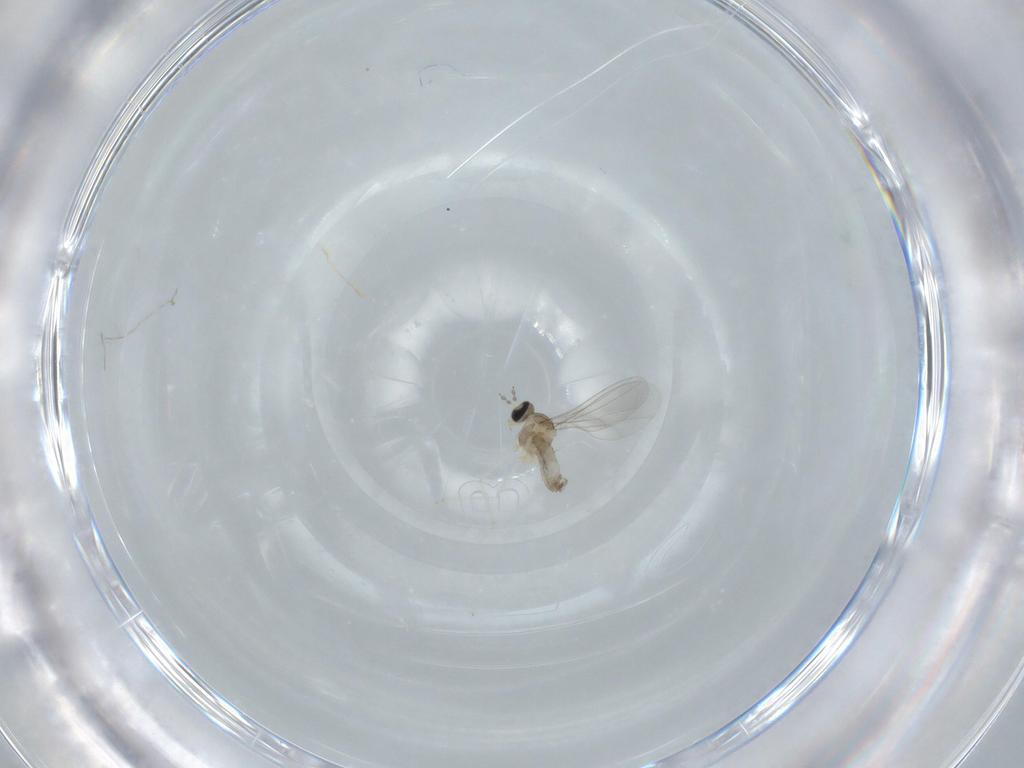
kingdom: Animalia
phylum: Arthropoda
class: Insecta
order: Diptera
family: Cecidomyiidae
